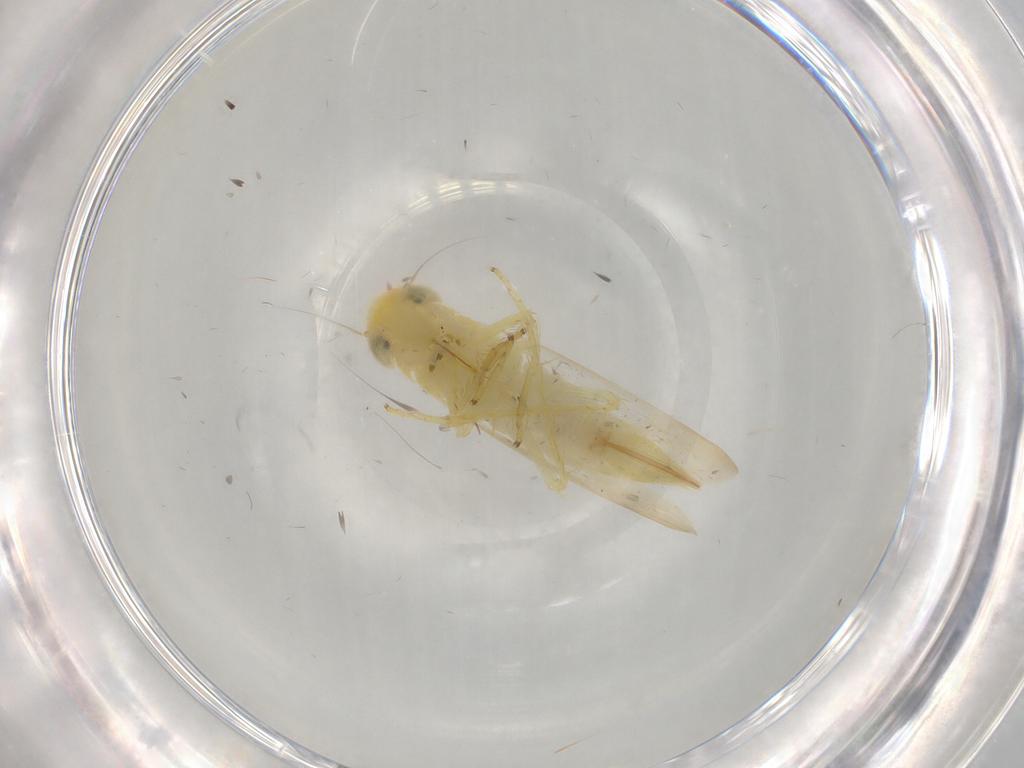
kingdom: Animalia
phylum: Arthropoda
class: Insecta
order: Hemiptera
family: Cicadellidae
